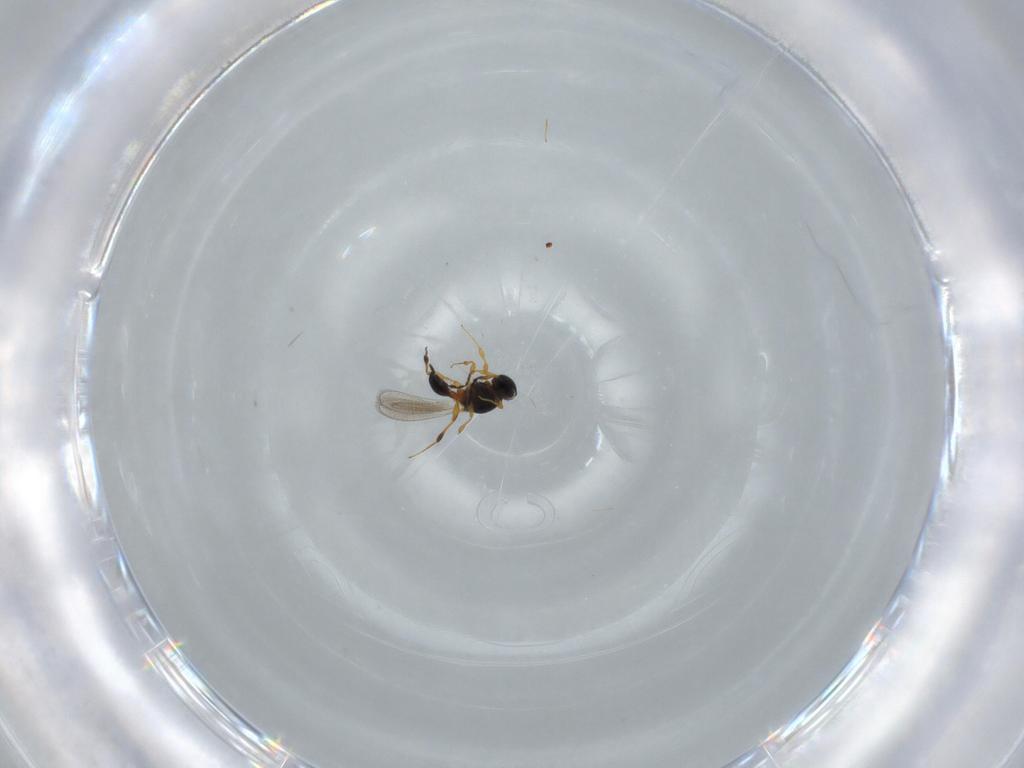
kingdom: Animalia
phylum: Arthropoda
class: Insecta
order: Hymenoptera
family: Platygastridae
